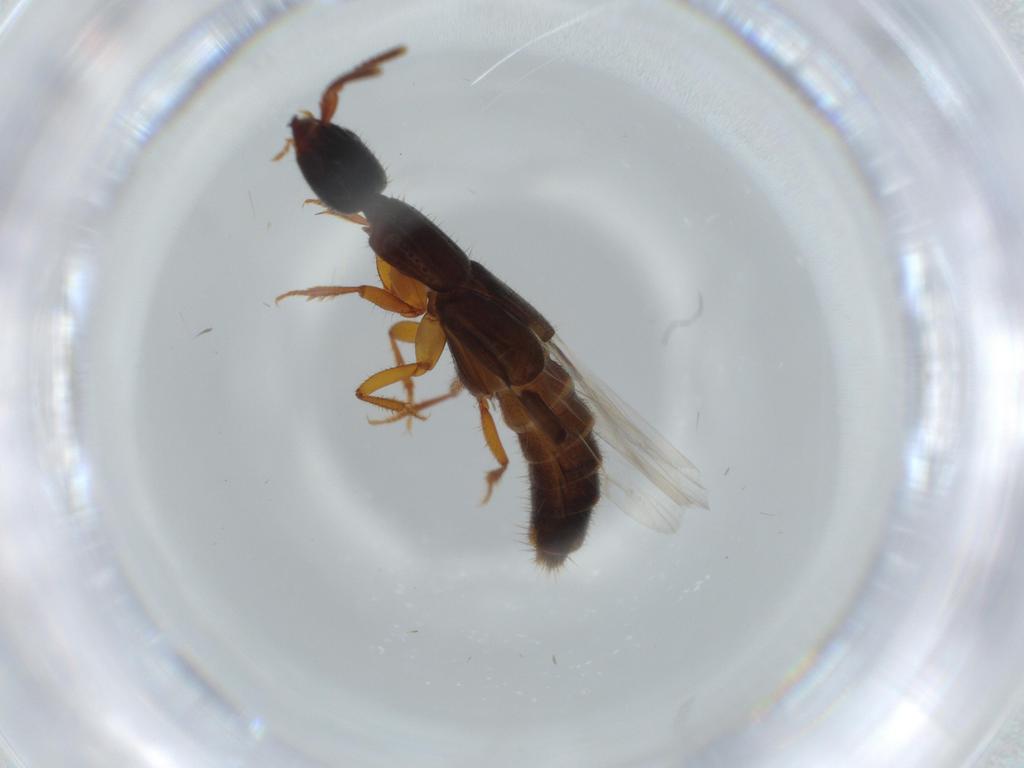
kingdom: Animalia
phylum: Arthropoda
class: Insecta
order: Coleoptera
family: Staphylinidae
